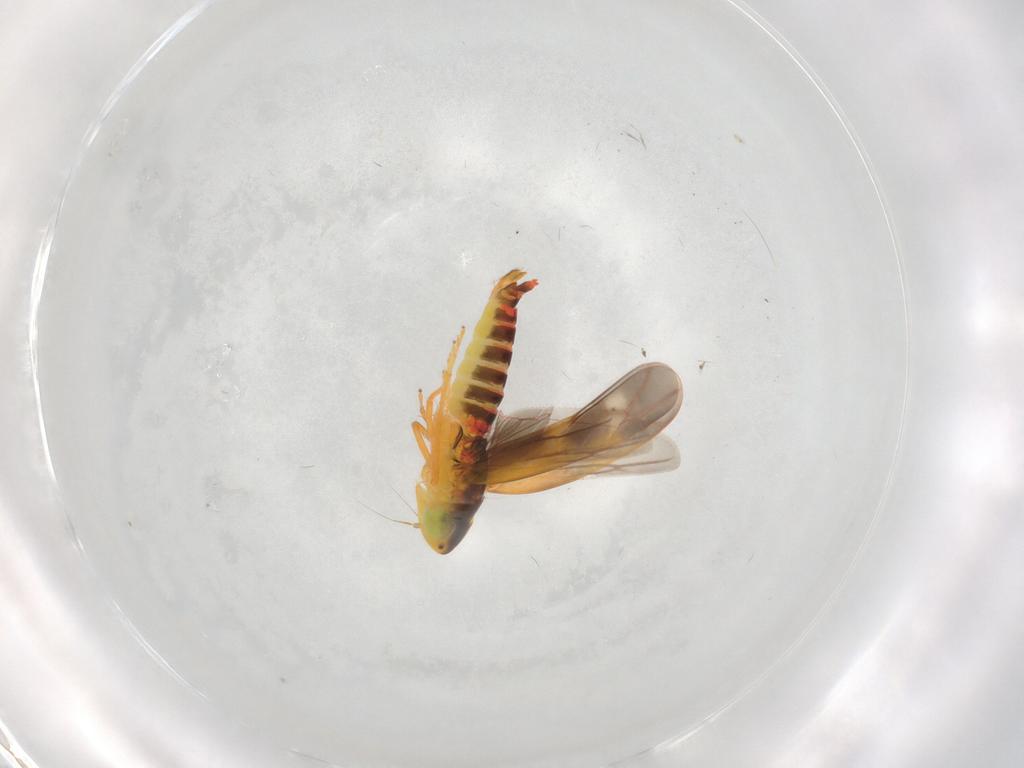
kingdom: Animalia
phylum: Arthropoda
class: Insecta
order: Hemiptera
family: Cicadellidae
